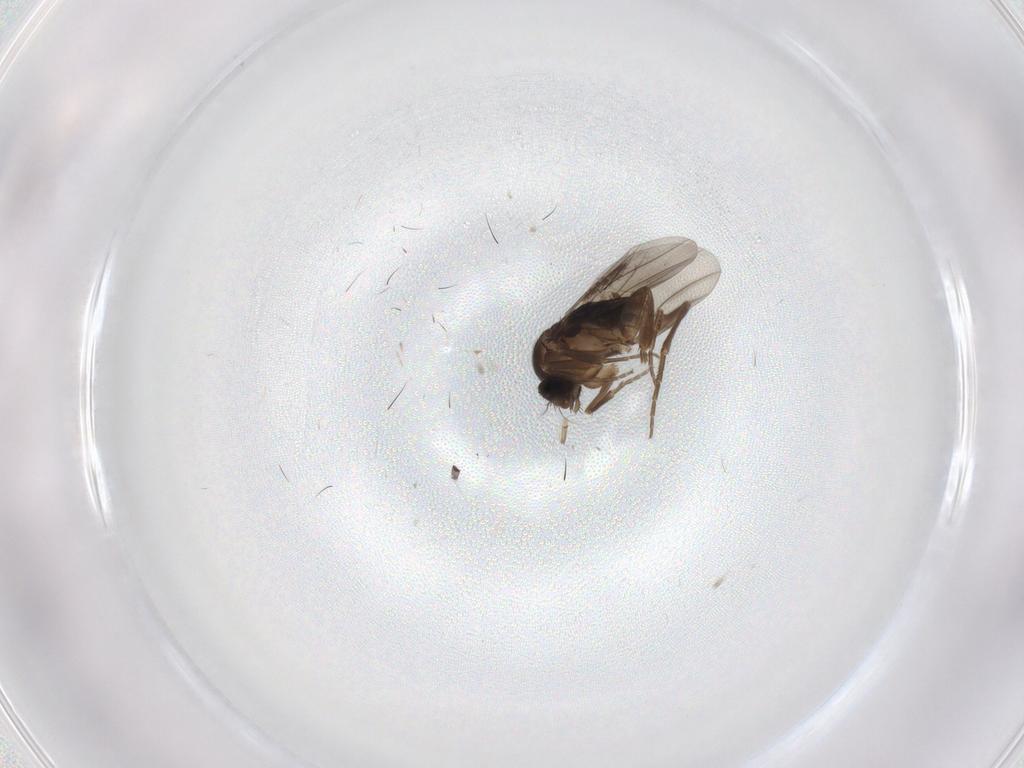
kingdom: Animalia
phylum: Arthropoda
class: Insecta
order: Diptera
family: Phoridae
